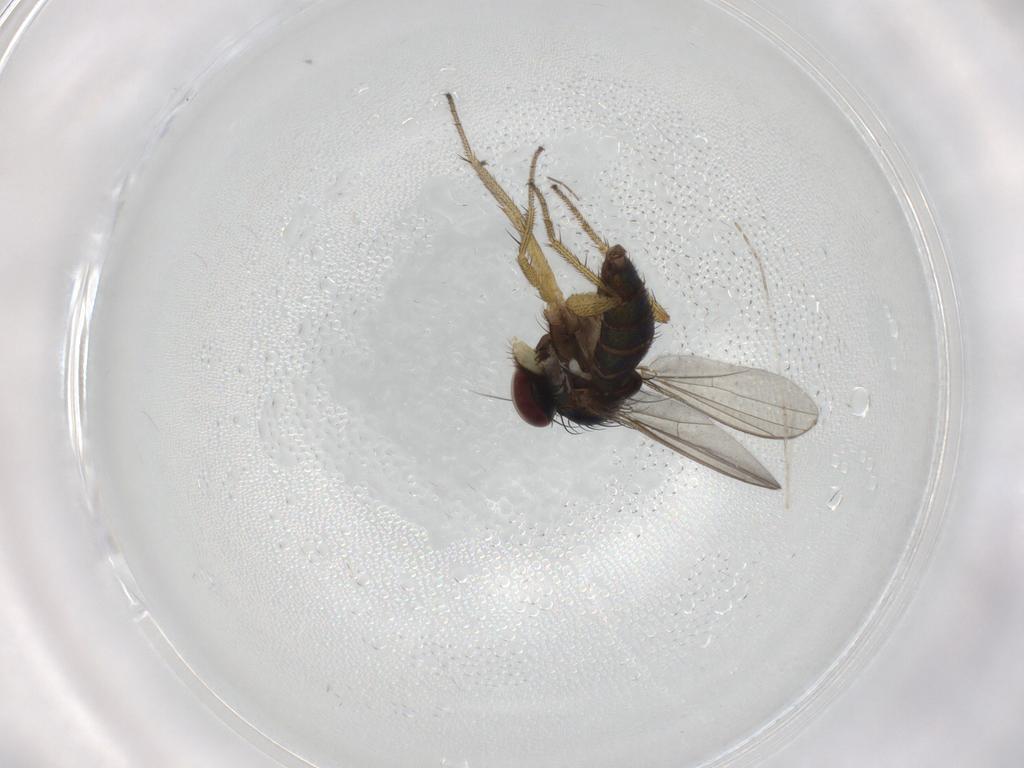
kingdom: Animalia
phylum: Arthropoda
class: Insecta
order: Diptera
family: Dolichopodidae
